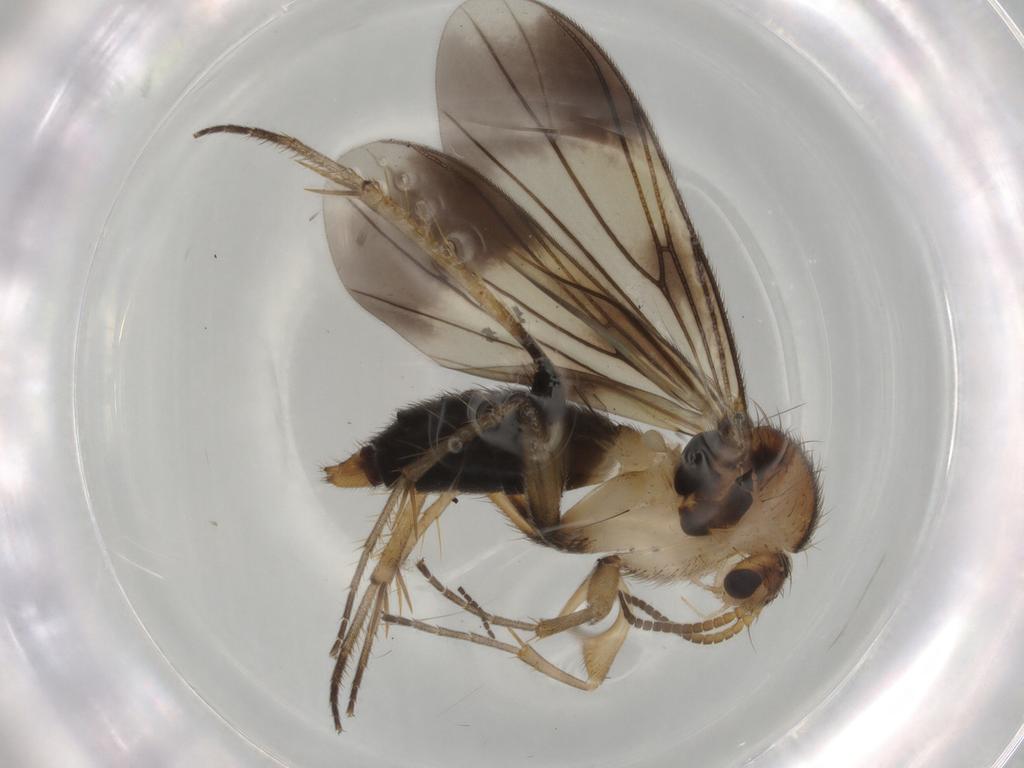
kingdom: Animalia
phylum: Arthropoda
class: Insecta
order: Diptera
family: Mycetophilidae
